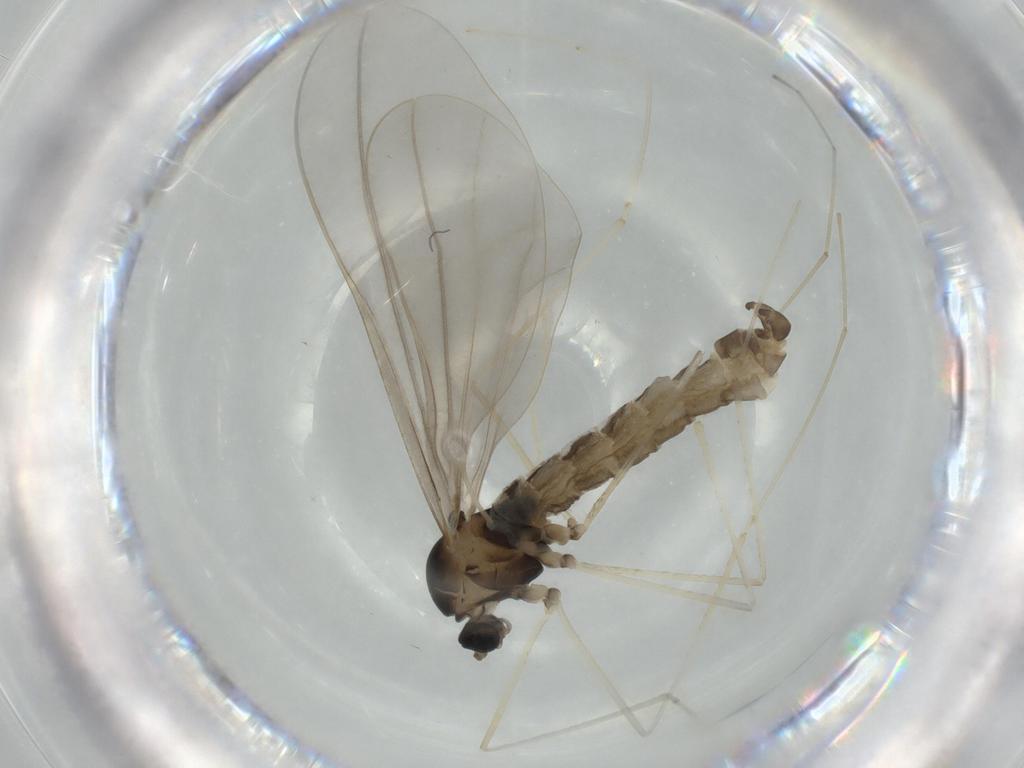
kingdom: Animalia
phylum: Arthropoda
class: Insecta
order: Diptera
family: Cecidomyiidae
